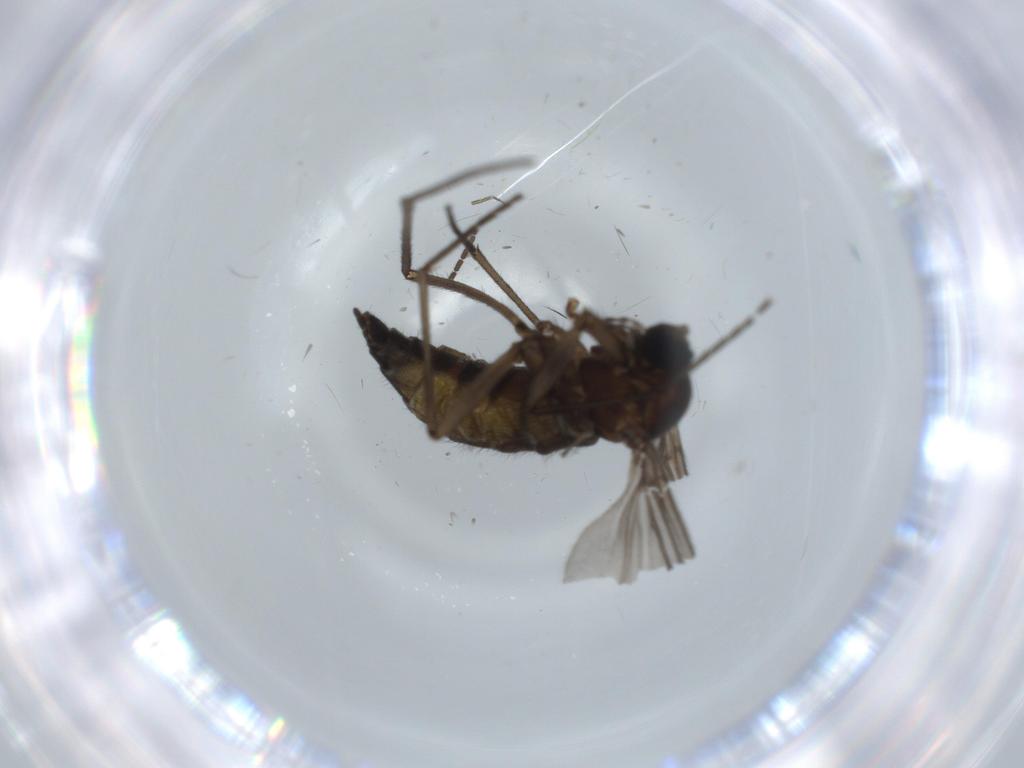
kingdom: Animalia
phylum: Arthropoda
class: Insecta
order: Diptera
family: Sciaridae
